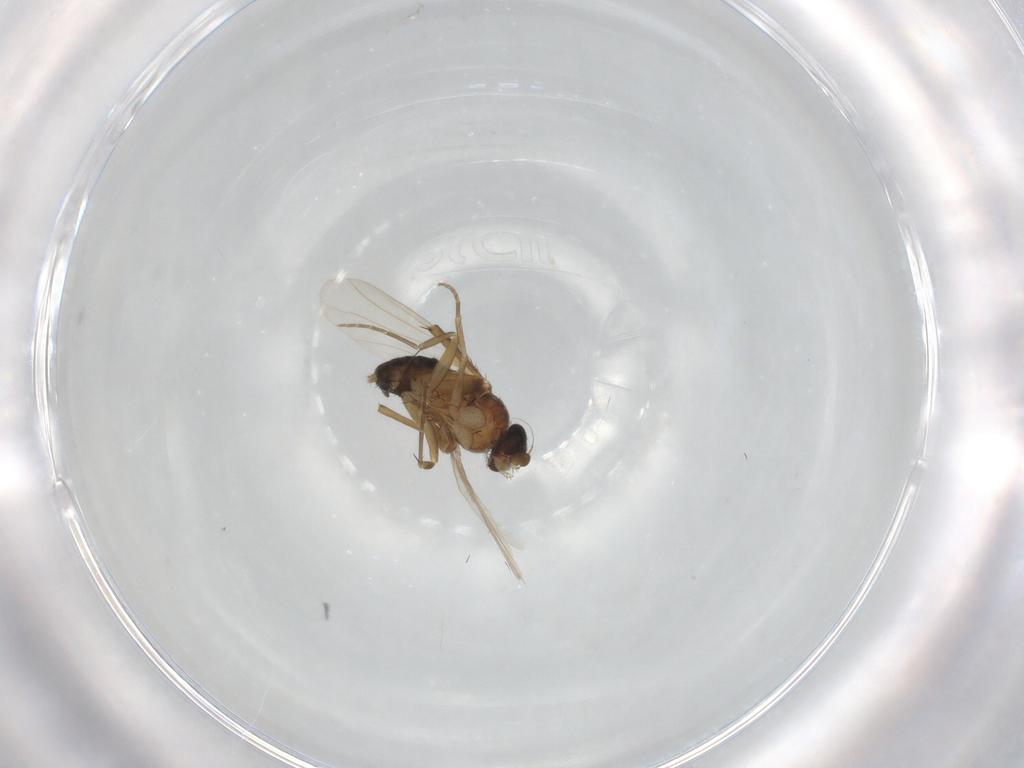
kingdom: Animalia
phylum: Arthropoda
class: Insecta
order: Diptera
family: Phoridae
